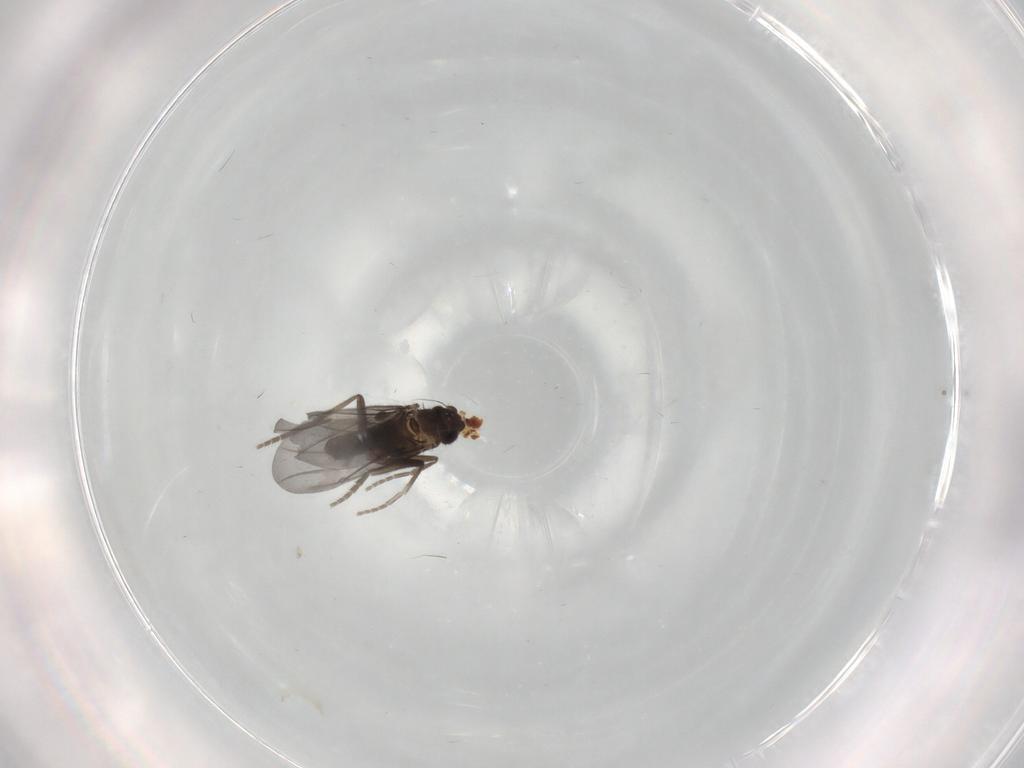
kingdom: Animalia
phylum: Arthropoda
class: Insecta
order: Diptera
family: Phoridae
